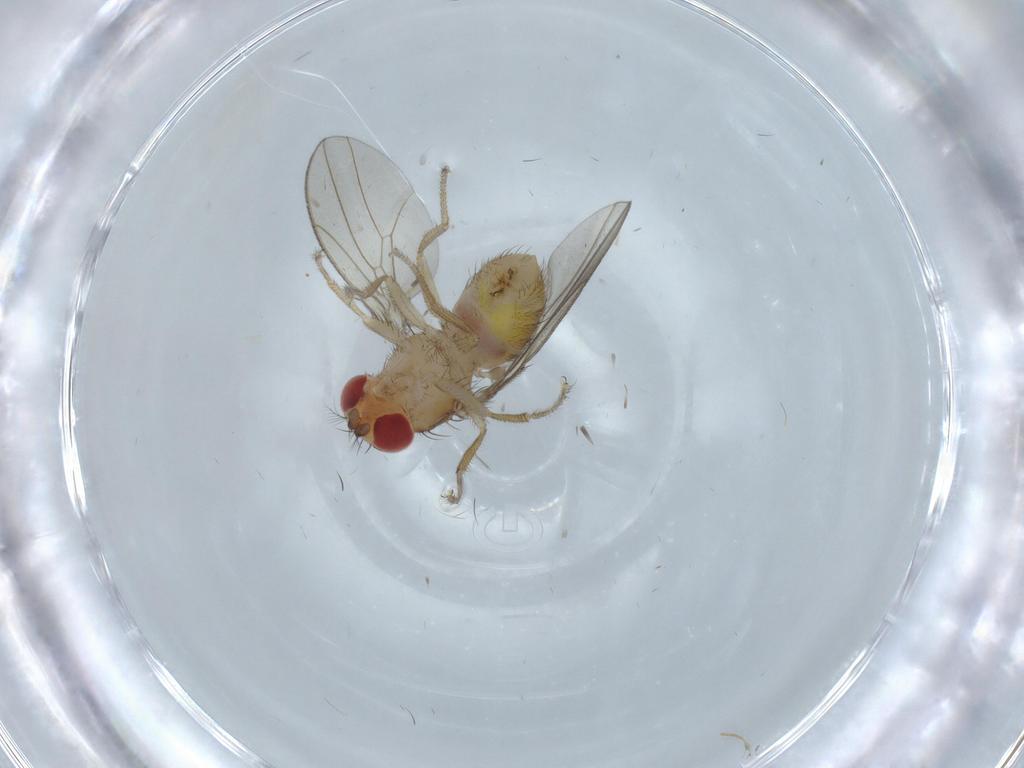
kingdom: Animalia
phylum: Arthropoda
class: Insecta
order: Diptera
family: Drosophilidae
